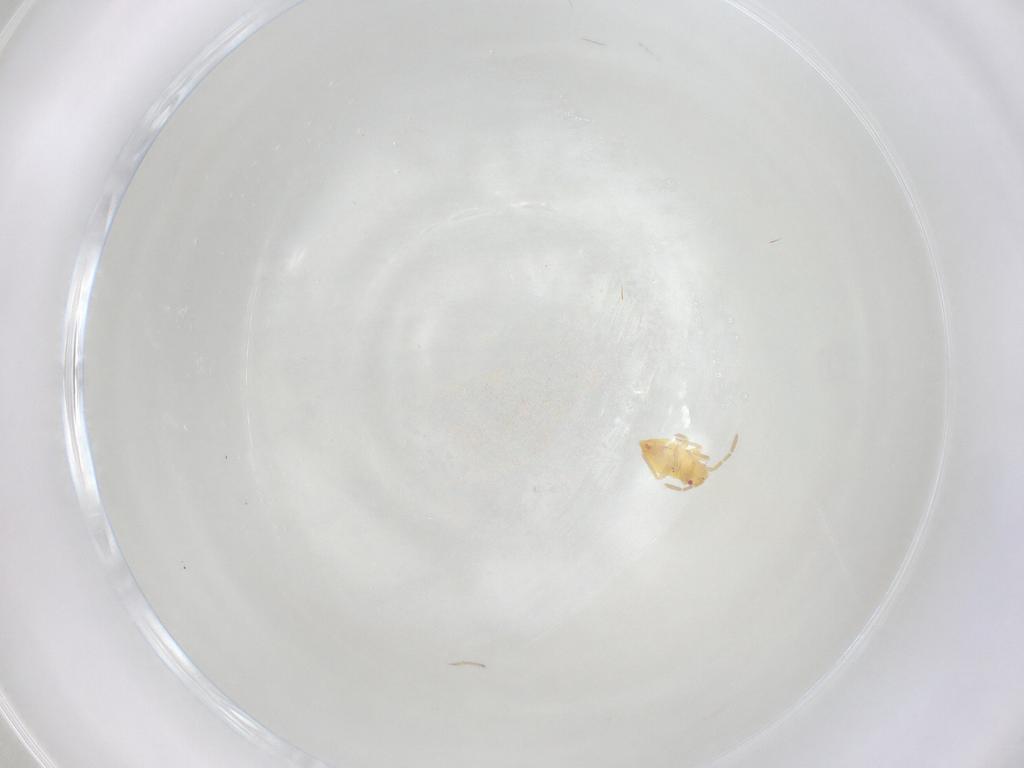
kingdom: Animalia
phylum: Arthropoda
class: Insecta
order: Hemiptera
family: Miridae
